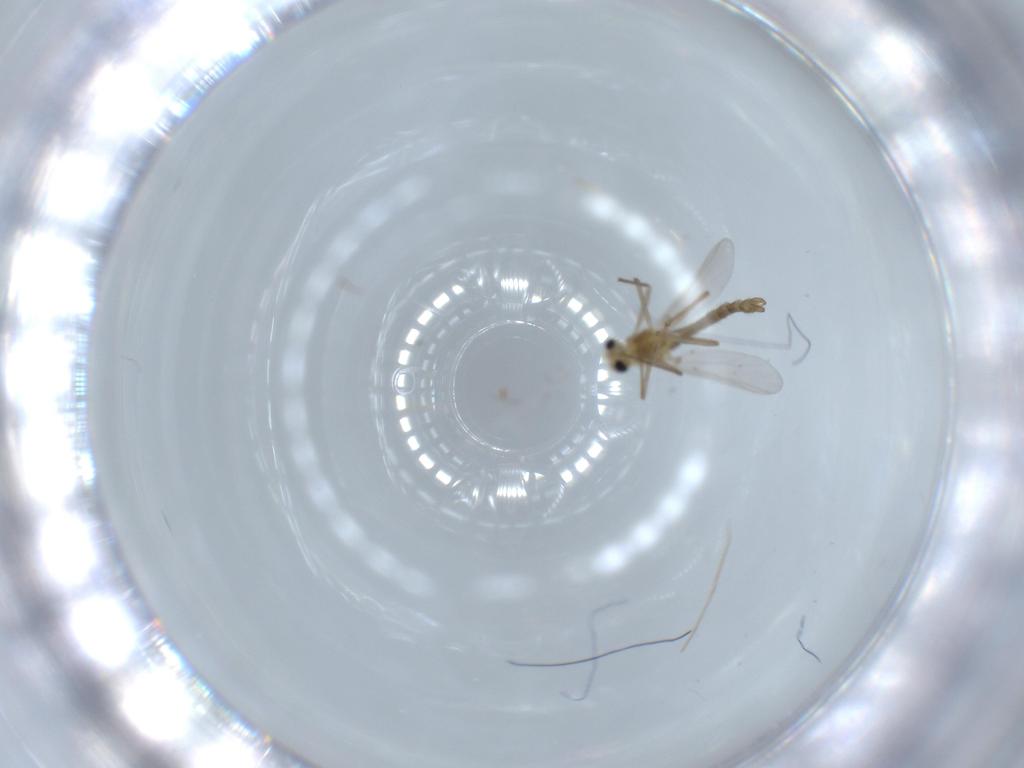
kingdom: Animalia
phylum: Arthropoda
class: Insecta
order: Diptera
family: Chironomidae
